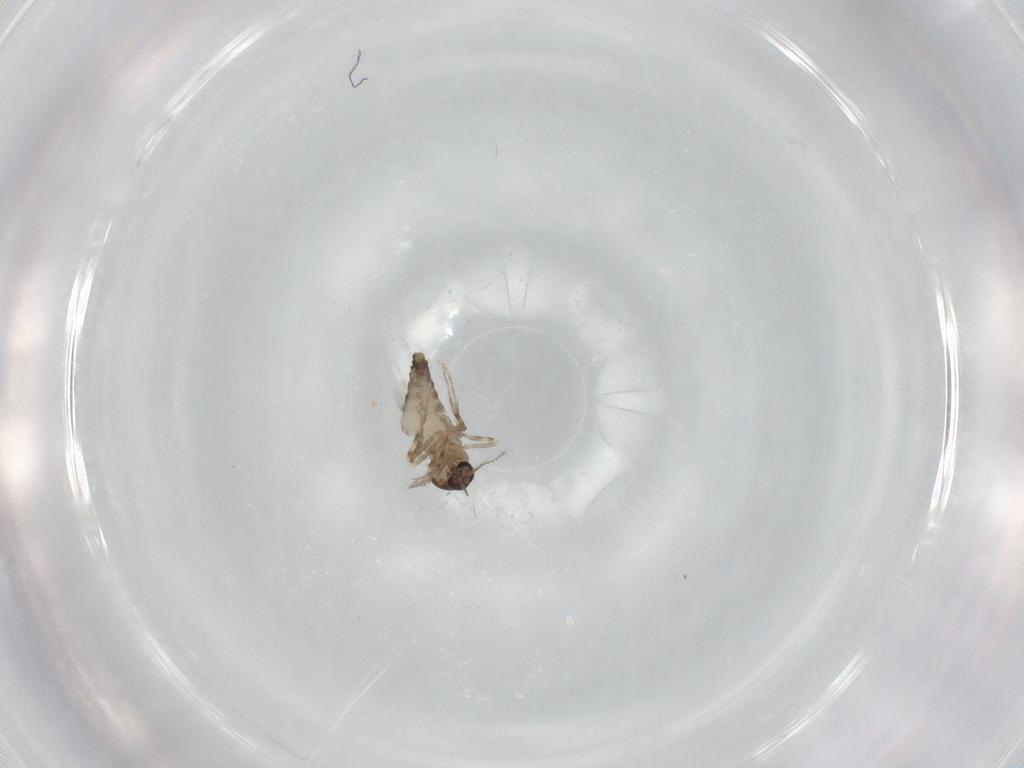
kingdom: Animalia
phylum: Arthropoda
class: Insecta
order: Diptera
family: Ceratopogonidae
